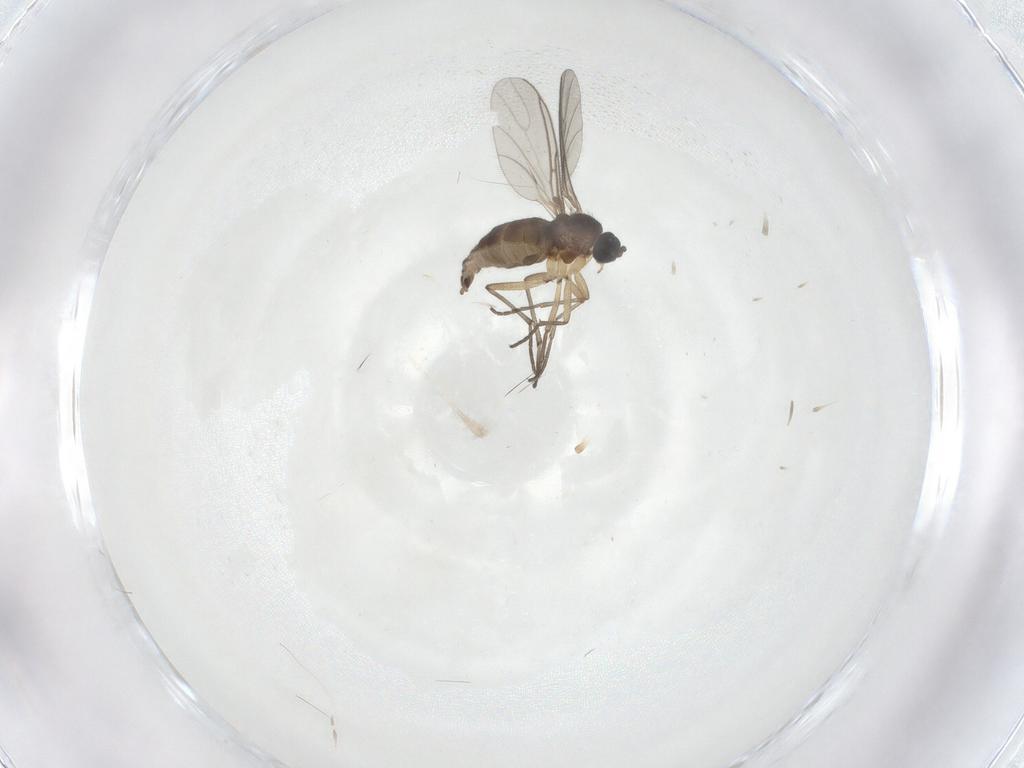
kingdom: Animalia
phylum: Arthropoda
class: Insecta
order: Diptera
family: Sciaridae
